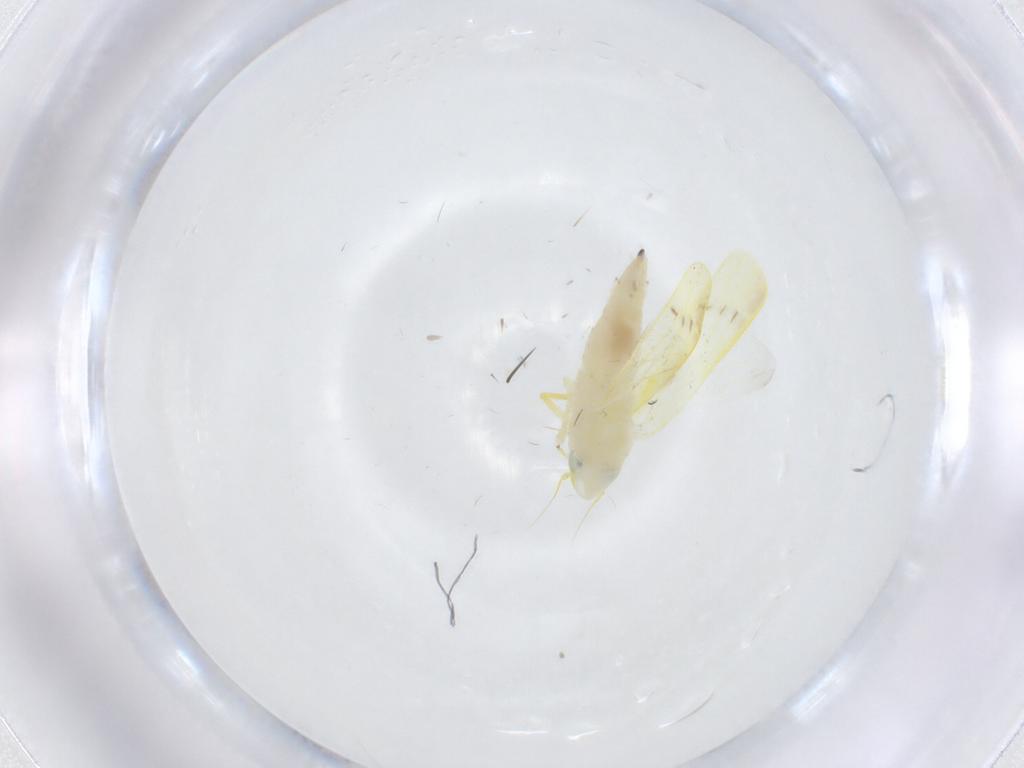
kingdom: Animalia
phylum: Arthropoda
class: Insecta
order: Hemiptera
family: Cicadellidae
